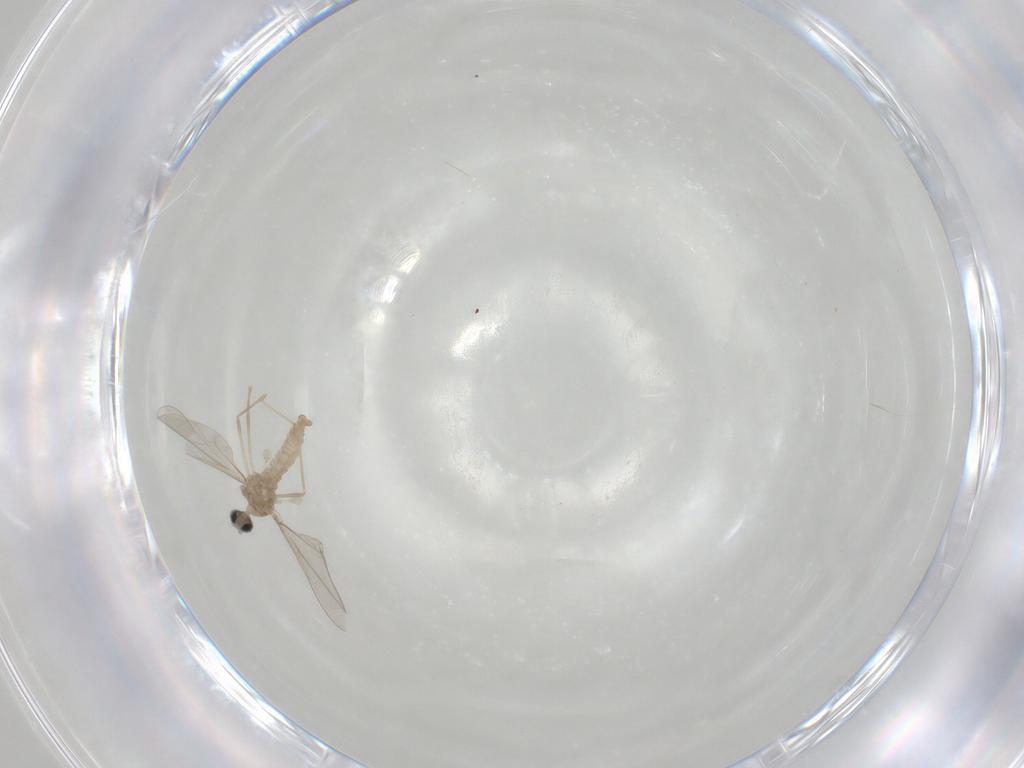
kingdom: Animalia
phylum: Arthropoda
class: Insecta
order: Diptera
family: Cecidomyiidae
